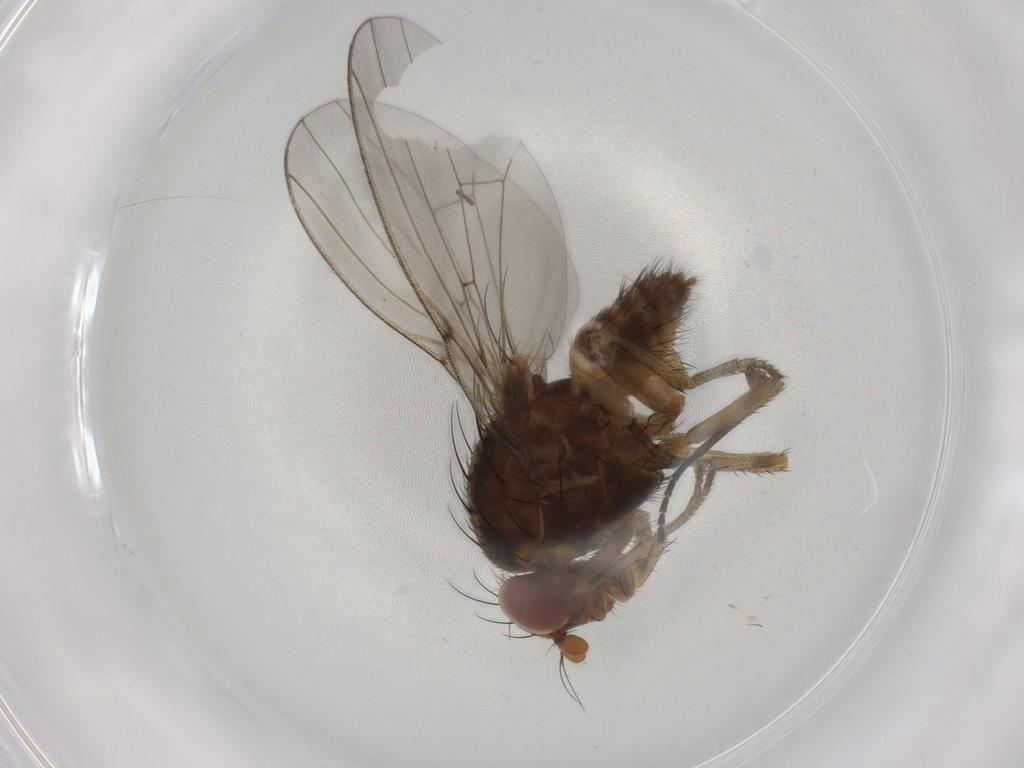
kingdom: Animalia
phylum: Arthropoda
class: Insecta
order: Diptera
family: Lauxaniidae
